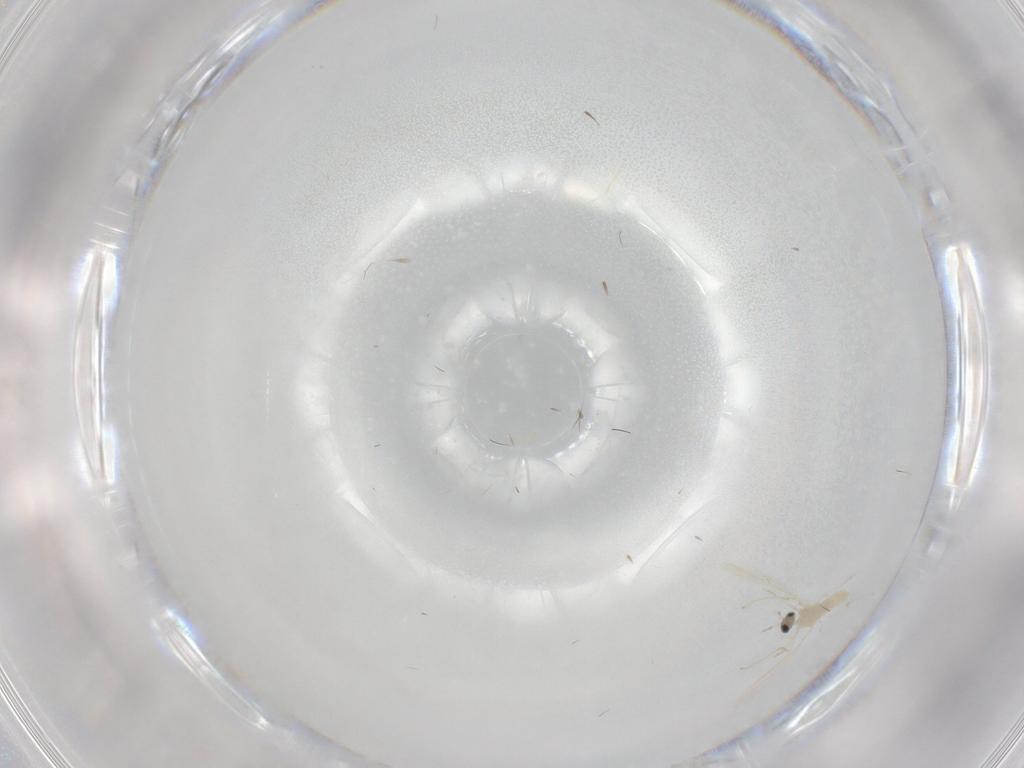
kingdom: Animalia
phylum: Arthropoda
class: Insecta
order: Diptera
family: Cecidomyiidae
